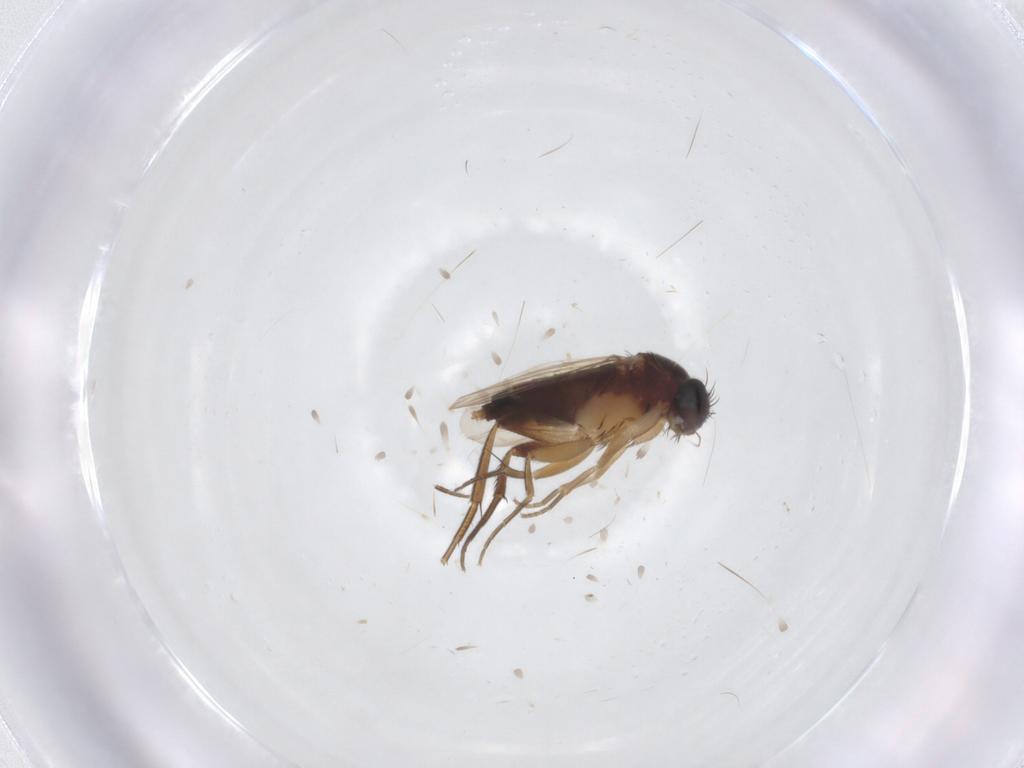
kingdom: Animalia
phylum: Arthropoda
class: Insecta
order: Diptera
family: Phoridae
